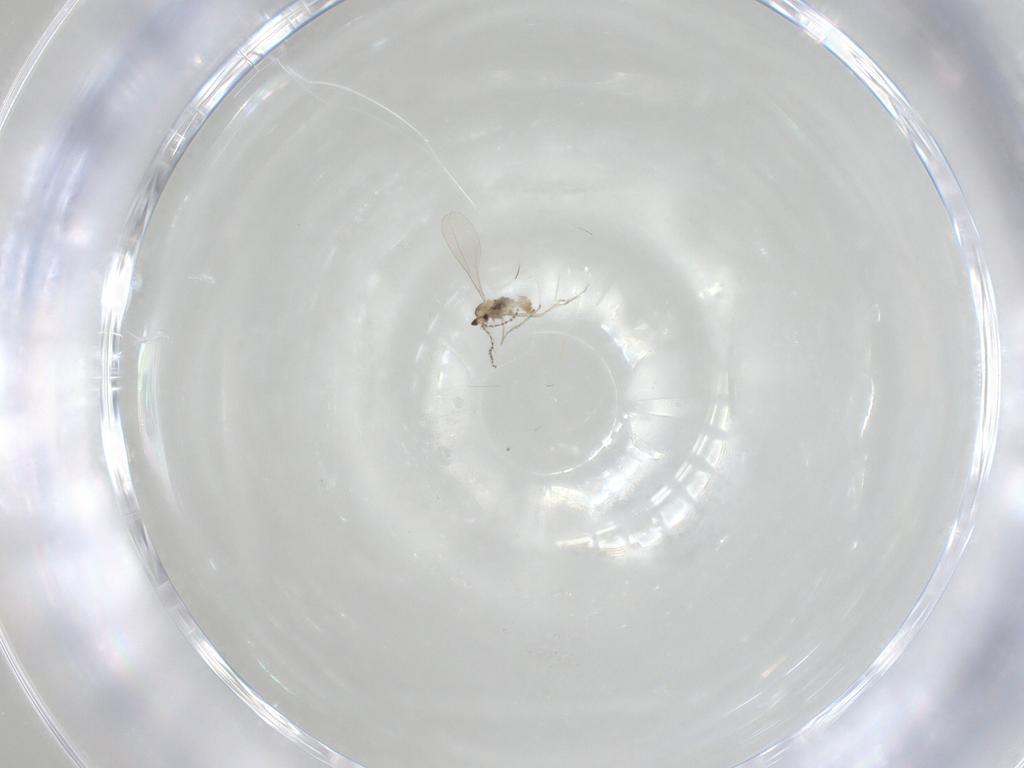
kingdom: Animalia
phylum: Arthropoda
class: Insecta
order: Diptera
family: Cecidomyiidae
